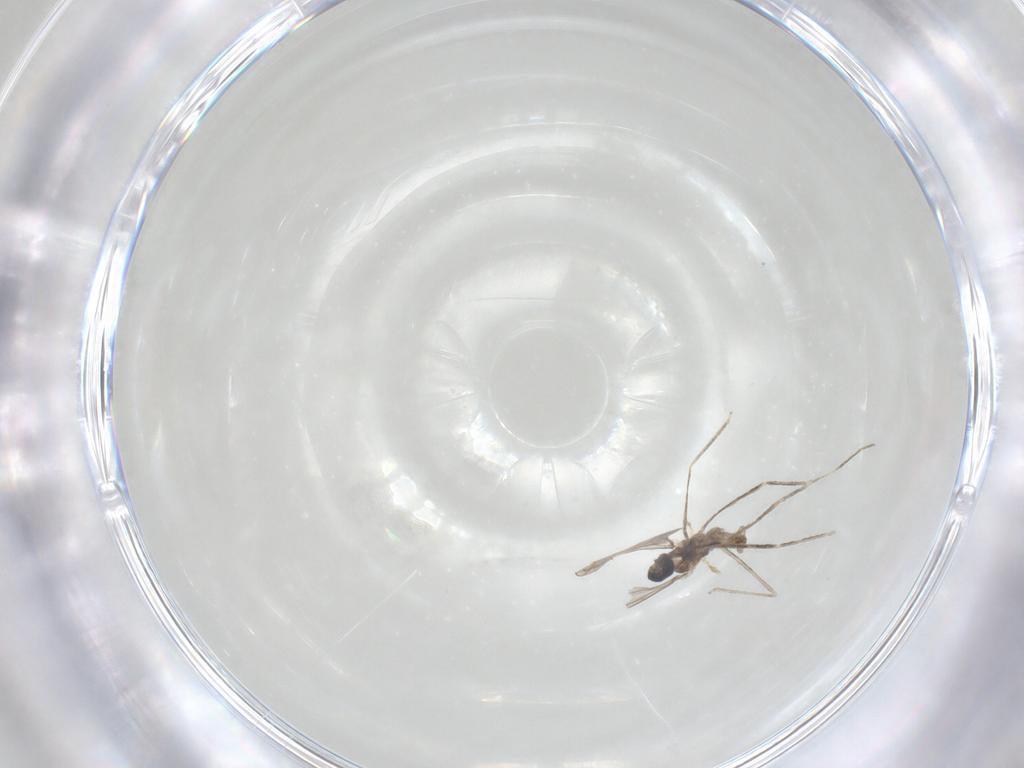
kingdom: Animalia
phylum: Arthropoda
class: Insecta
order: Diptera
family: Cecidomyiidae
